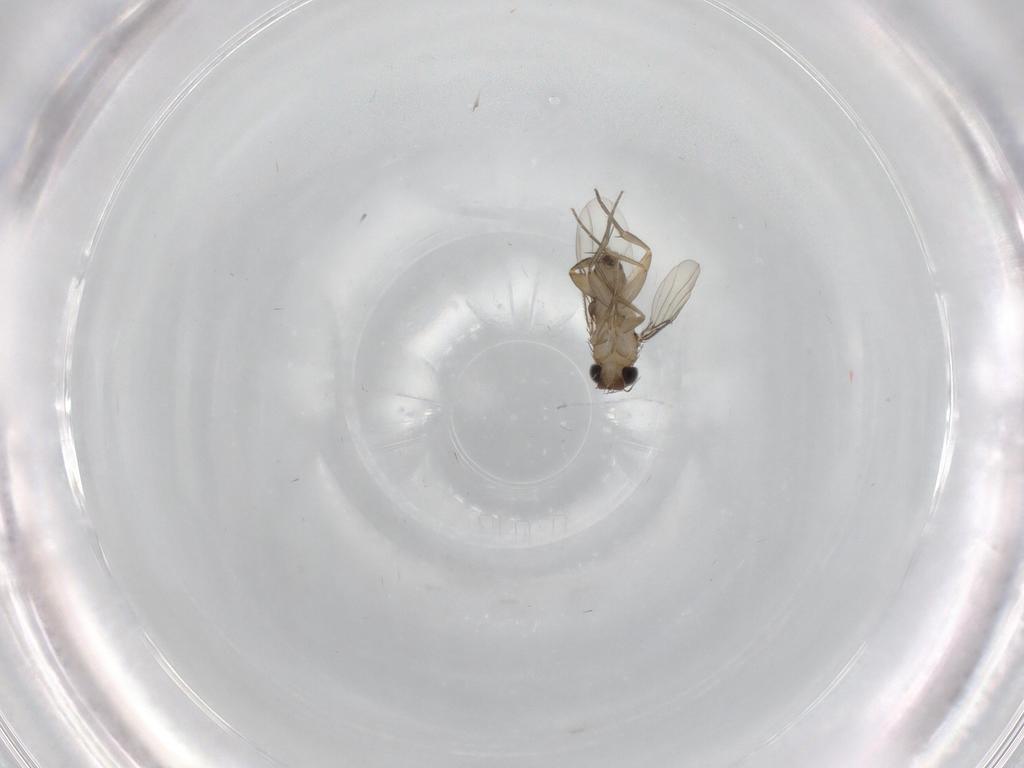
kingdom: Animalia
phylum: Arthropoda
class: Insecta
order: Diptera
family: Phoridae
